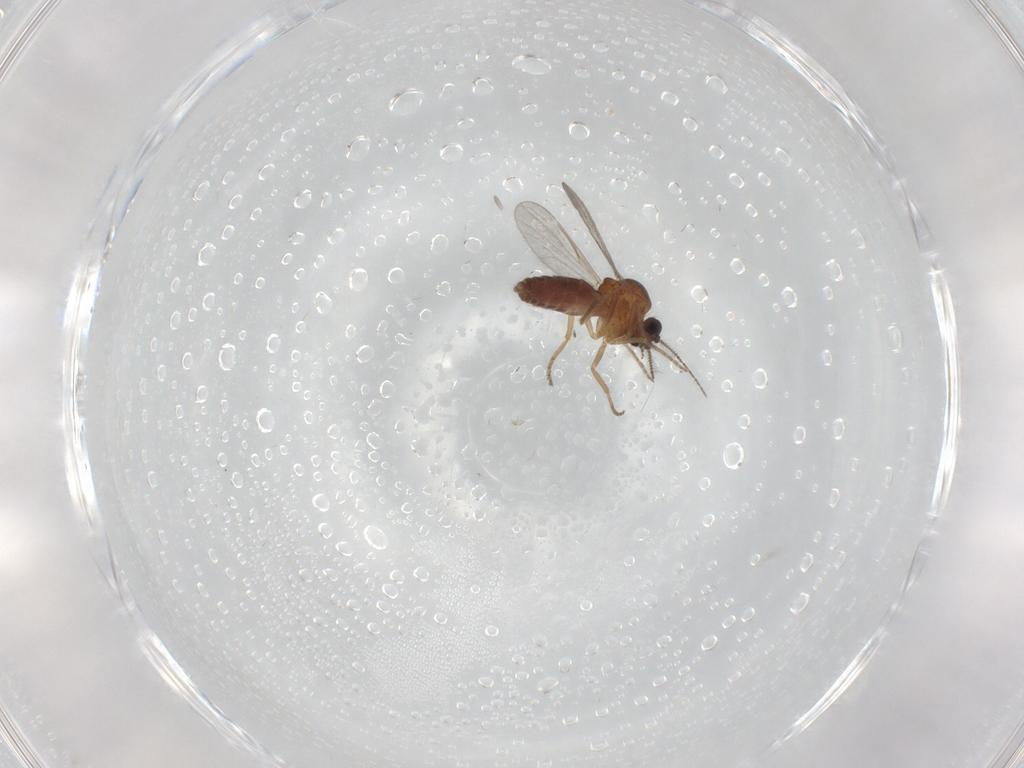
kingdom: Animalia
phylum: Arthropoda
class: Insecta
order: Diptera
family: Ceratopogonidae
